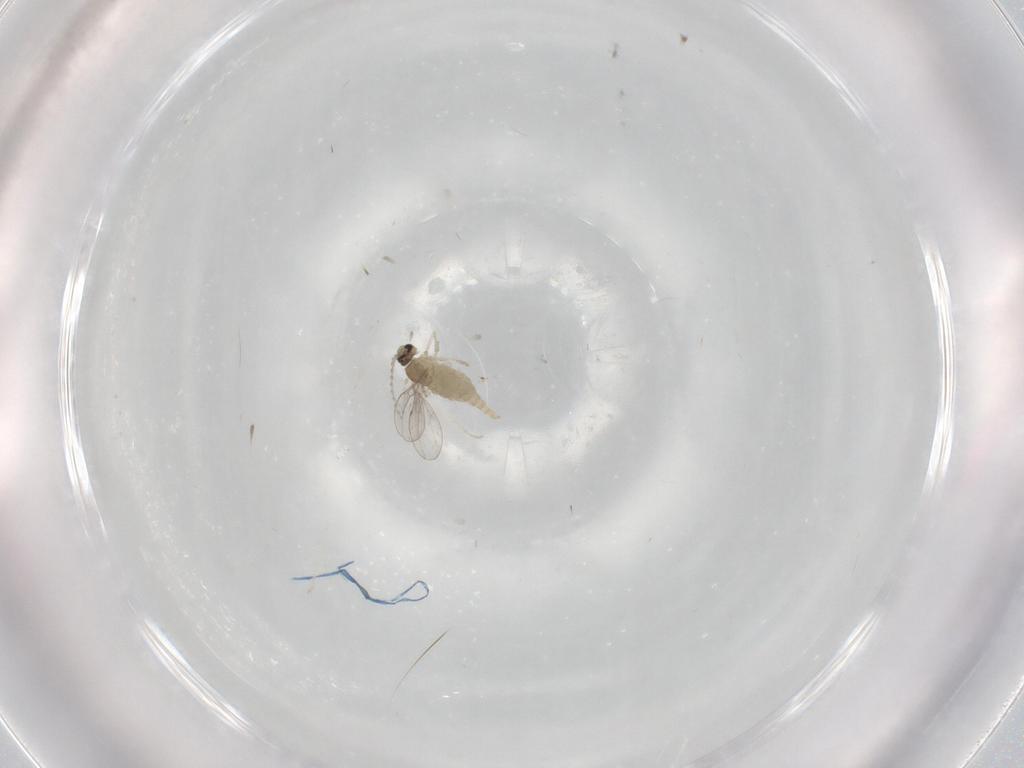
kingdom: Animalia
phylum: Arthropoda
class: Insecta
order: Diptera
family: Cecidomyiidae
